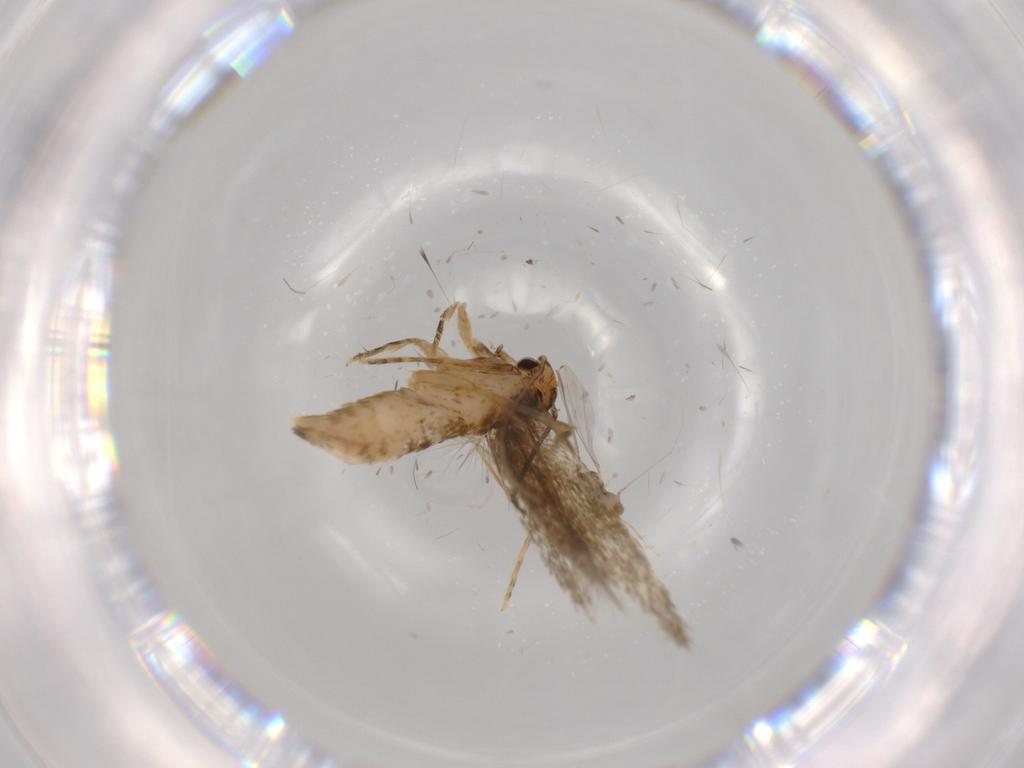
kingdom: Animalia
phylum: Arthropoda
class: Insecta
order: Lepidoptera
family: Tineidae
